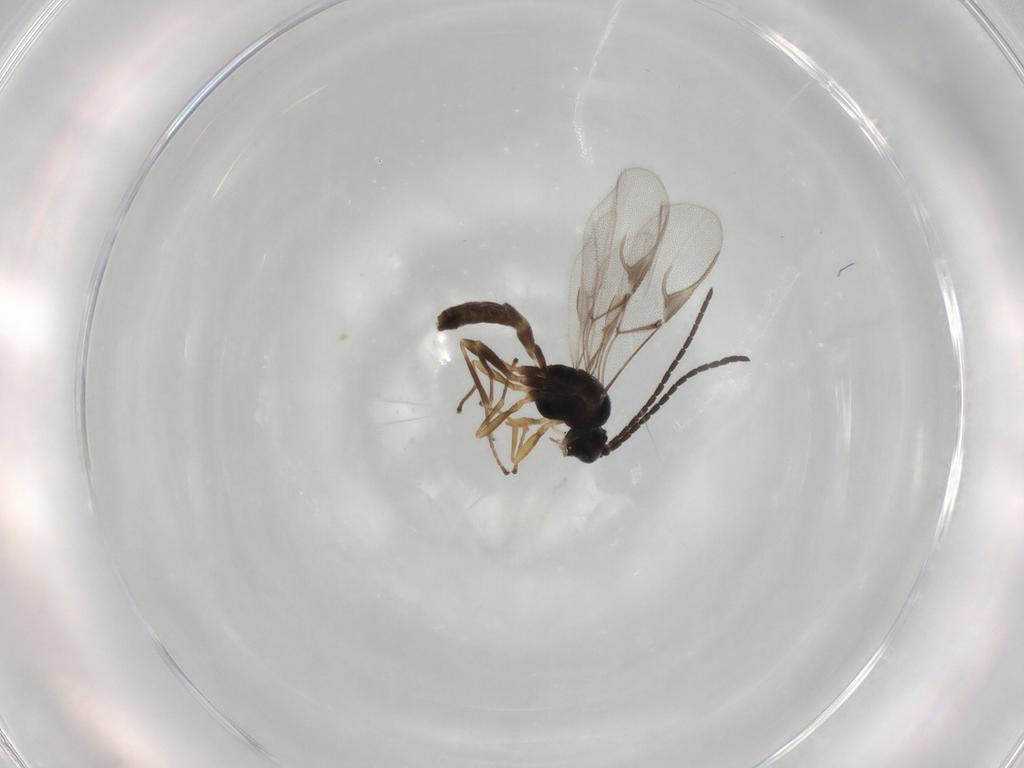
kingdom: Animalia
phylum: Arthropoda
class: Insecta
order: Hymenoptera
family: Braconidae
